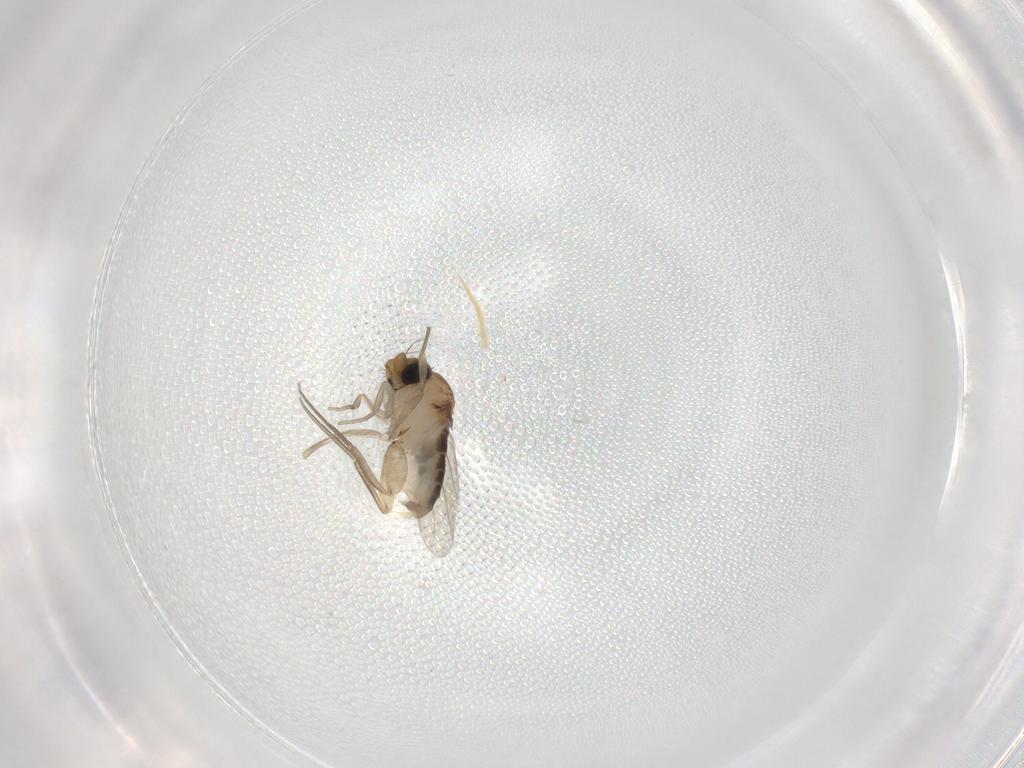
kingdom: Animalia
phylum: Arthropoda
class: Insecta
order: Diptera
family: Phoridae
